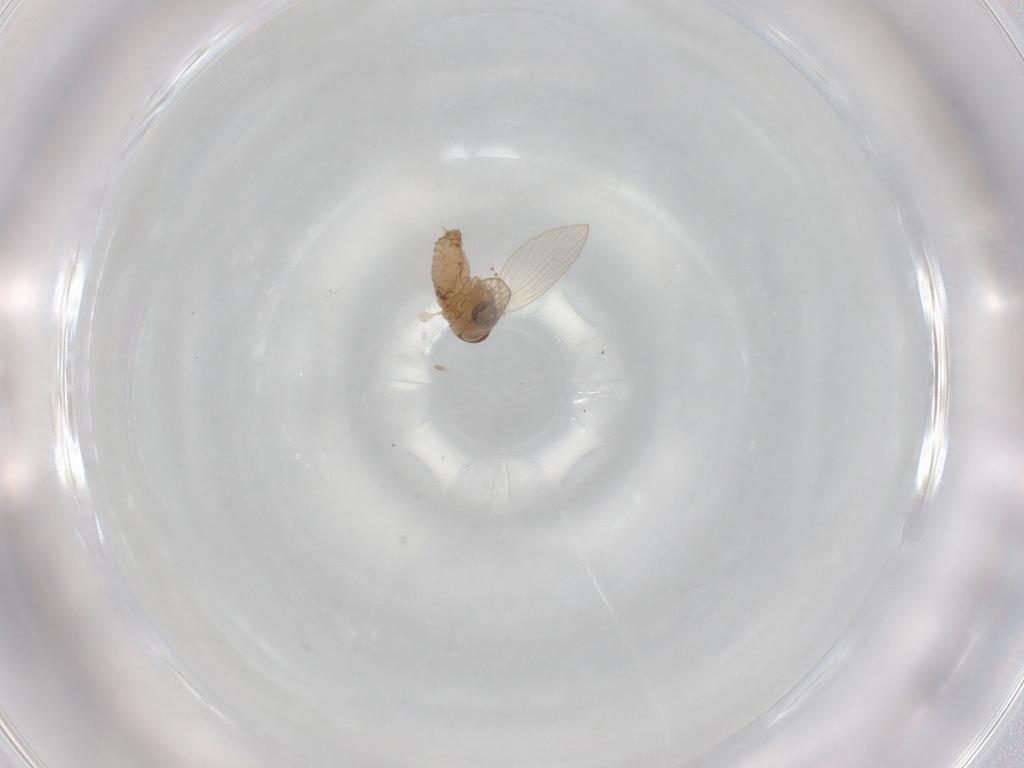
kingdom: Animalia
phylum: Arthropoda
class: Insecta
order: Diptera
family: Psychodidae
